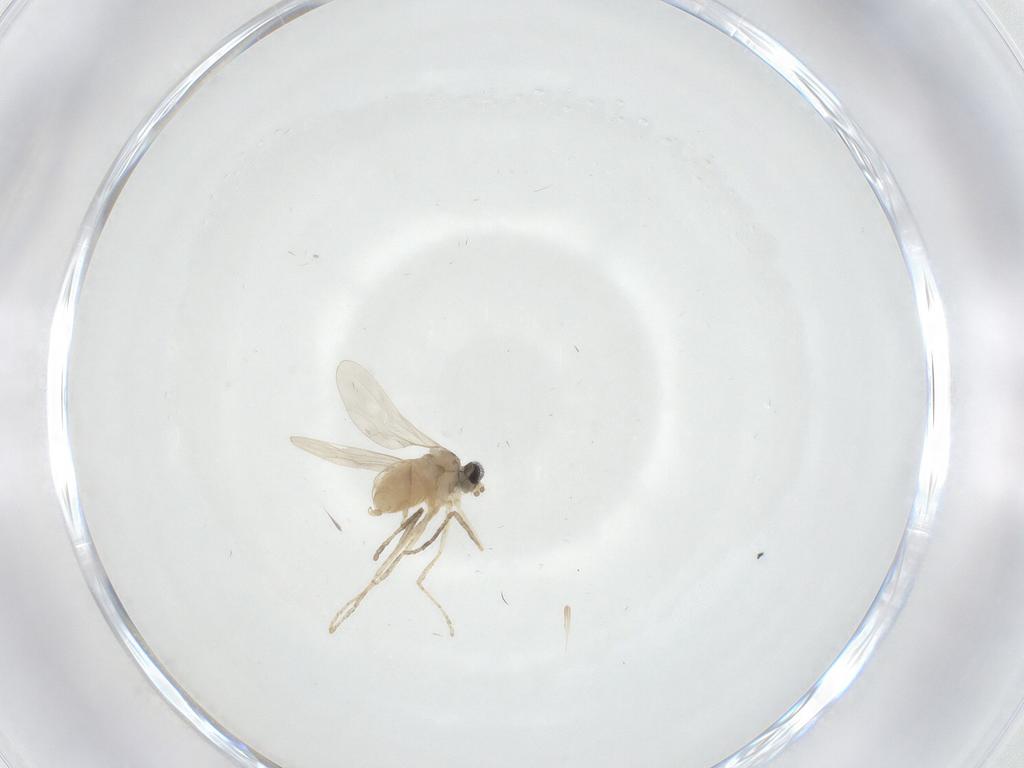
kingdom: Animalia
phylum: Arthropoda
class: Insecta
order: Diptera
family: Cecidomyiidae
